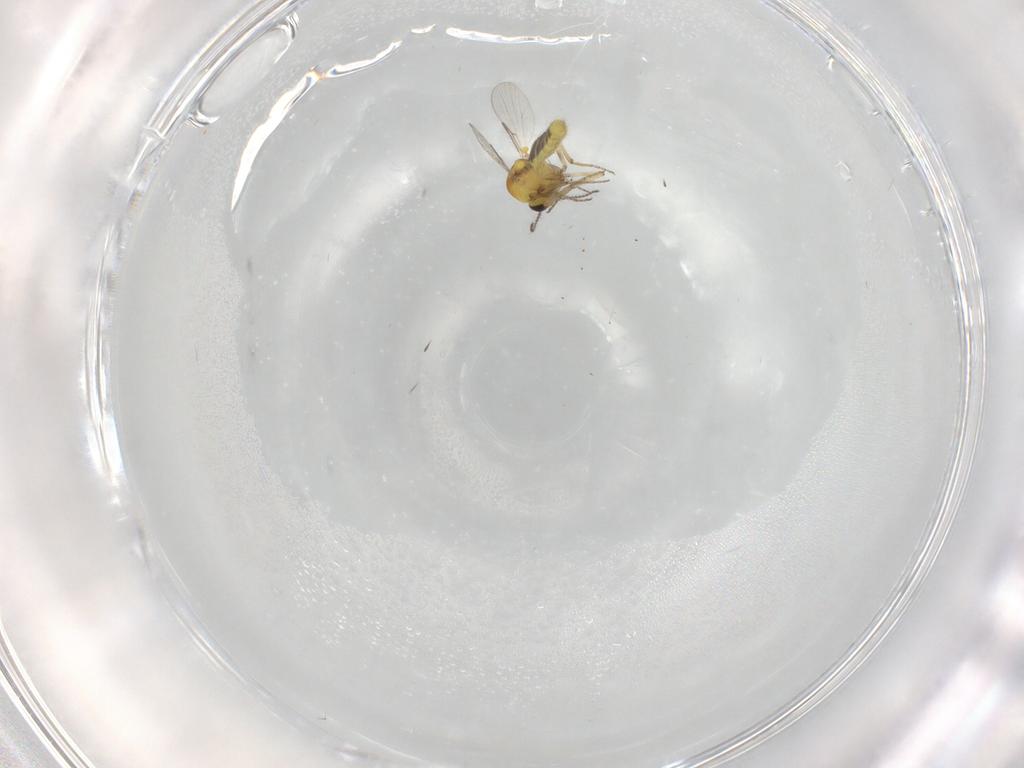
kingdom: Animalia
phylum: Arthropoda
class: Insecta
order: Diptera
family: Ceratopogonidae
